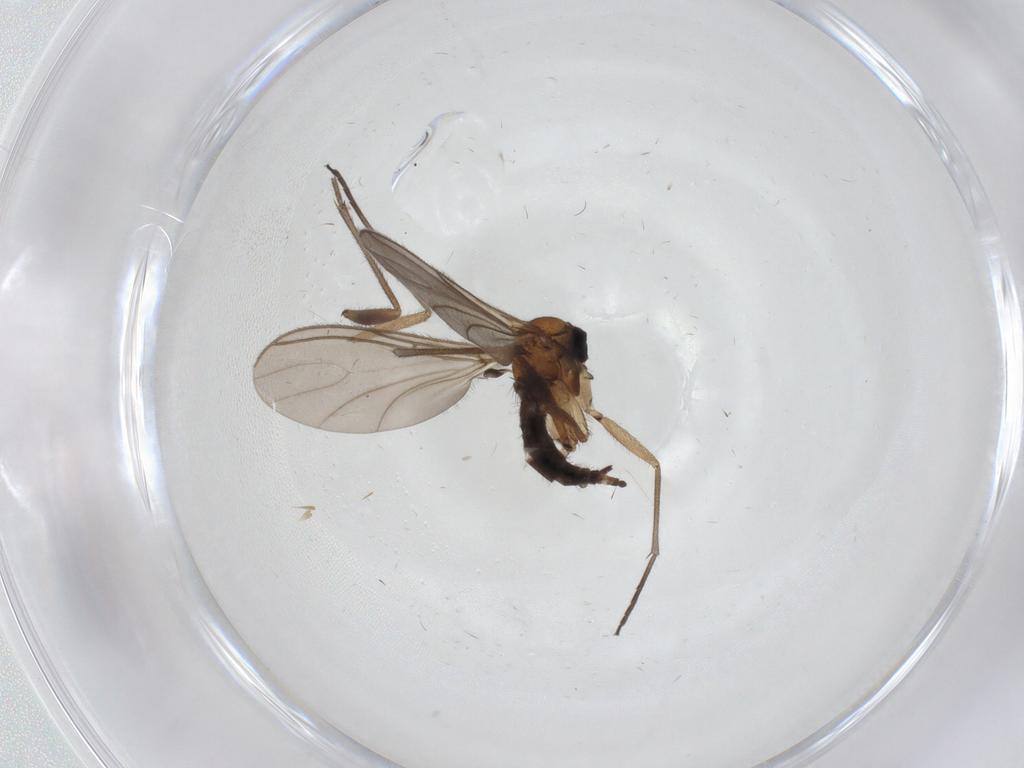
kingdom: Animalia
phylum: Arthropoda
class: Insecta
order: Diptera
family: Sciaridae
